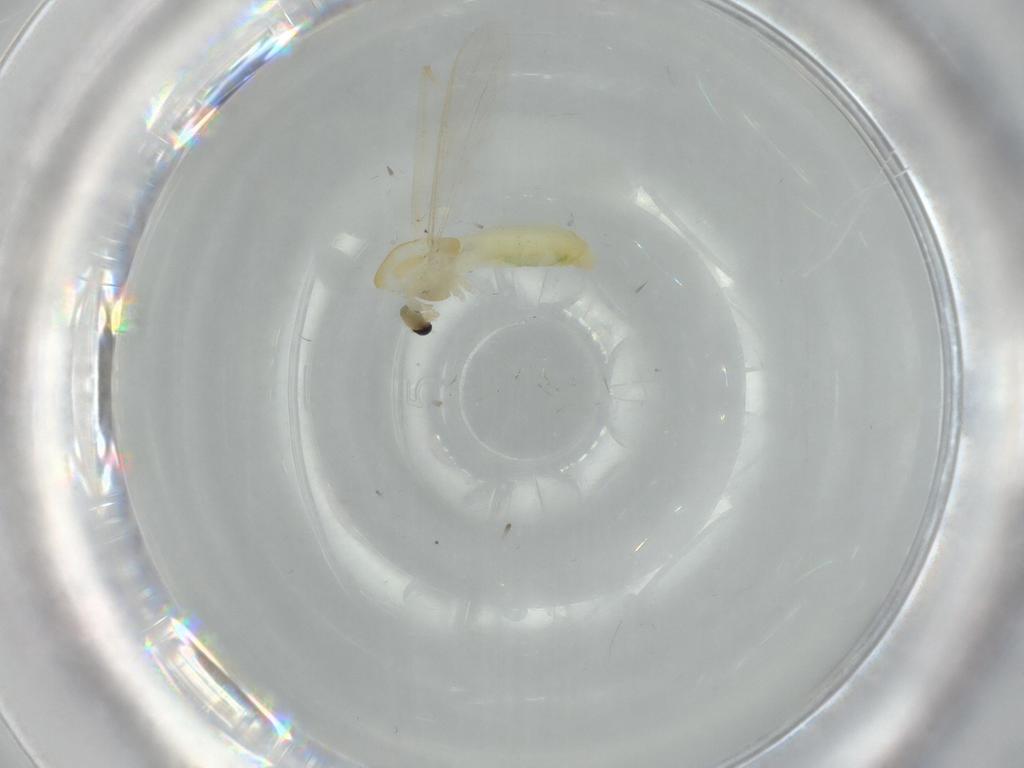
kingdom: Animalia
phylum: Arthropoda
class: Insecta
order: Diptera
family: Chironomidae
